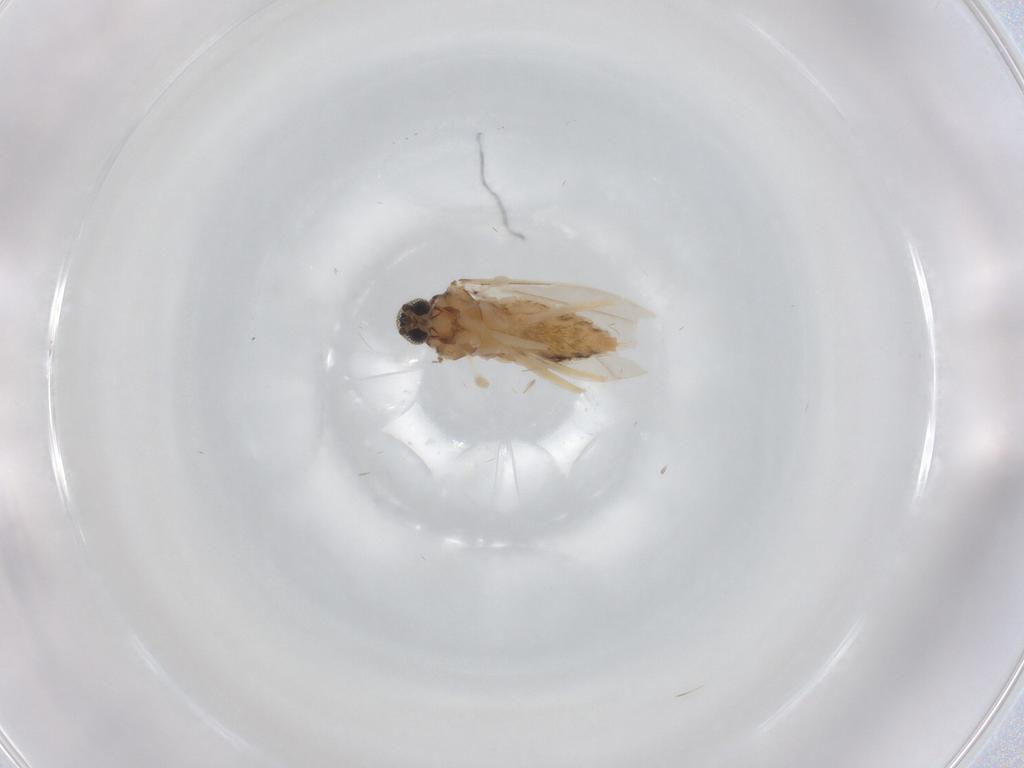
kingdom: Animalia
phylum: Arthropoda
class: Insecta
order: Diptera
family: Cecidomyiidae
